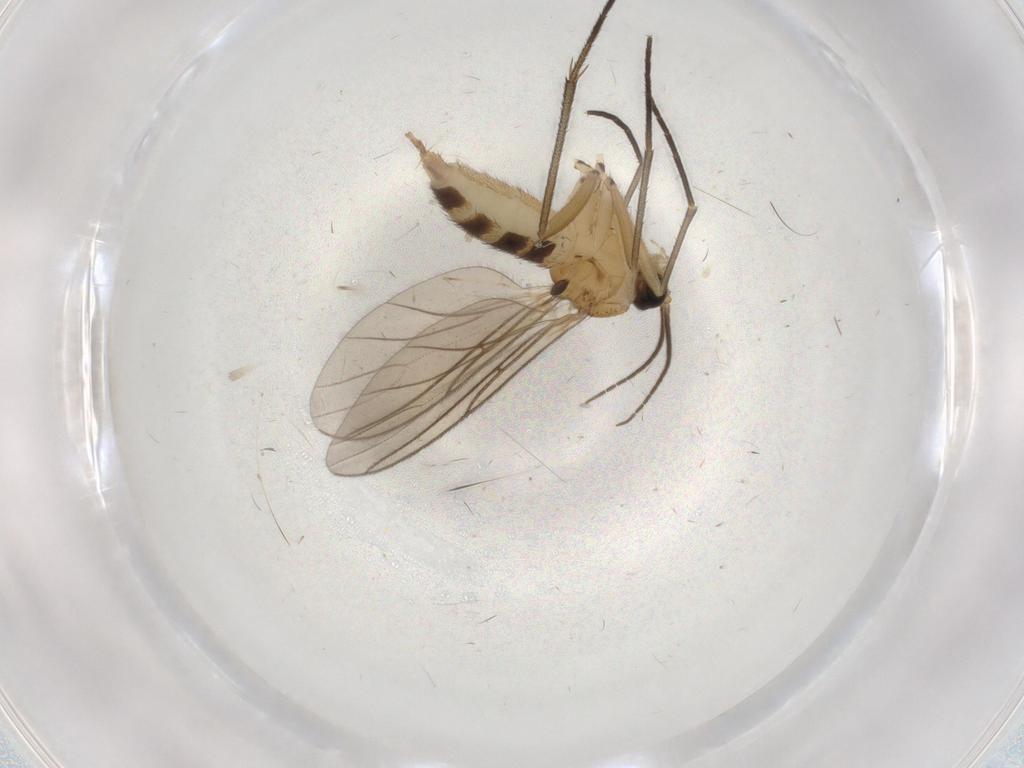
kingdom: Animalia
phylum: Arthropoda
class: Insecta
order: Diptera
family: Sciaridae
